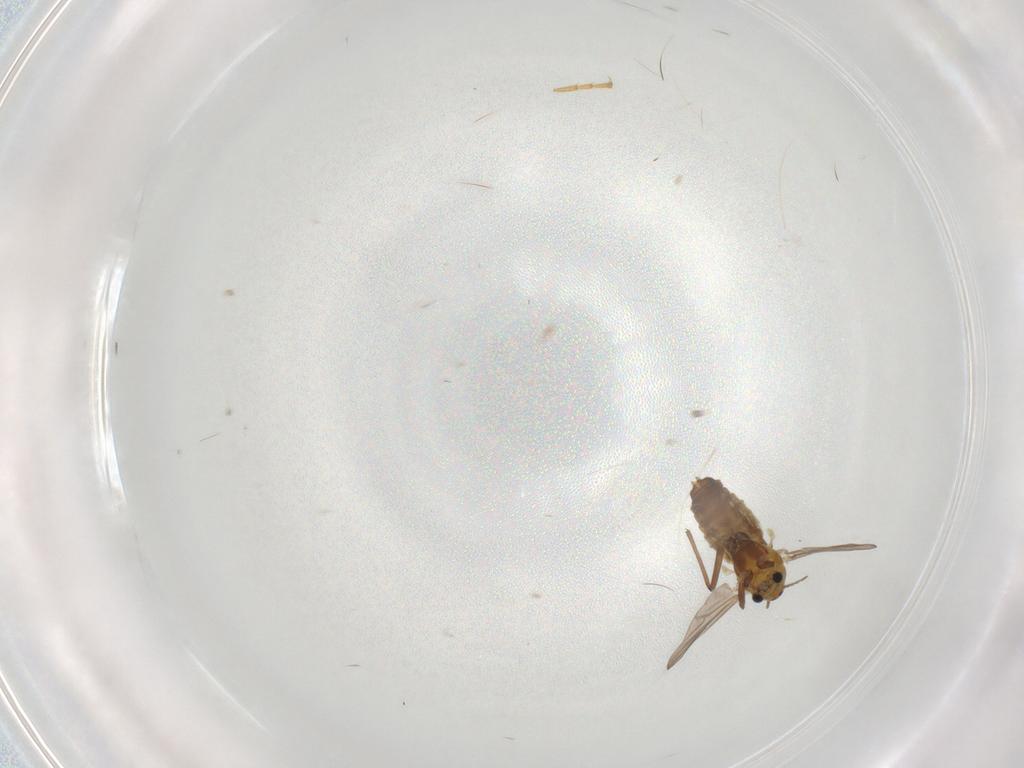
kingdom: Animalia
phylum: Arthropoda
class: Insecta
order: Diptera
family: Chironomidae
